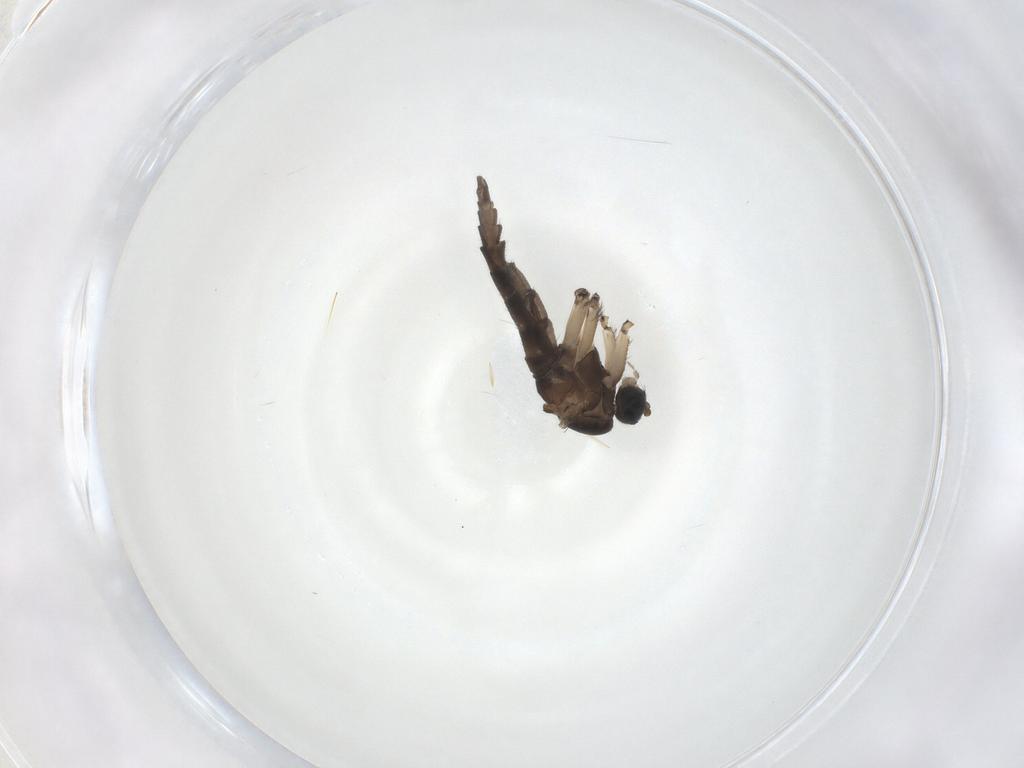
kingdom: Animalia
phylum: Arthropoda
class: Insecta
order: Diptera
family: Sciaridae
